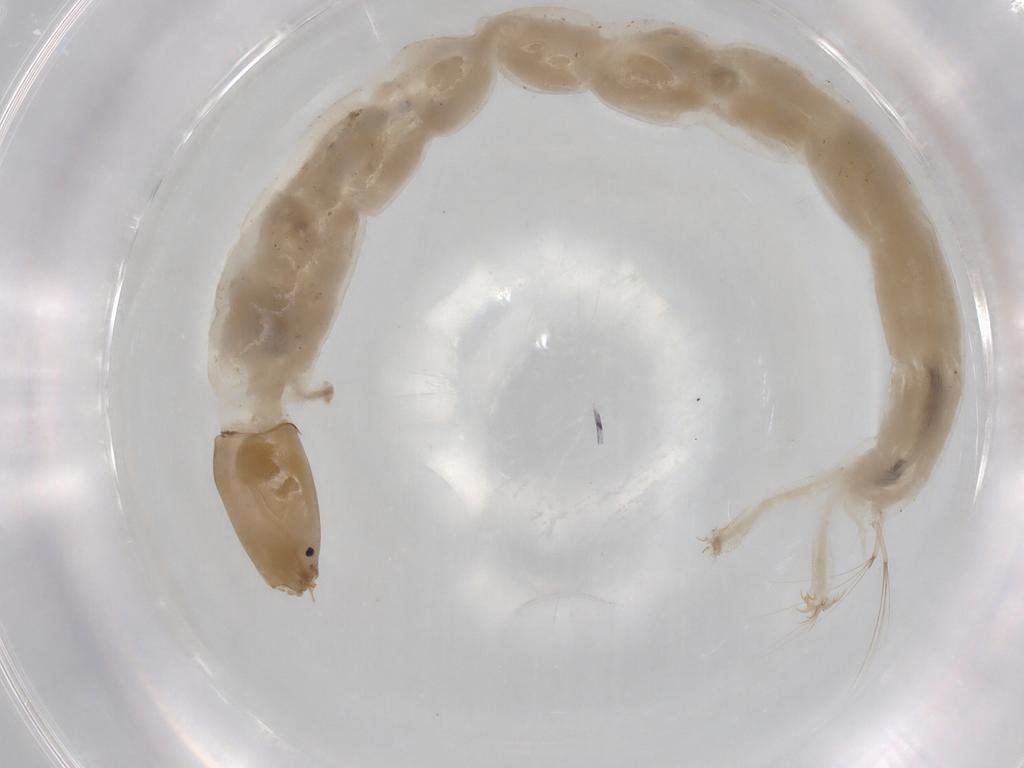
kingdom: Animalia
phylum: Arthropoda
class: Insecta
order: Diptera
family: Chironomidae
